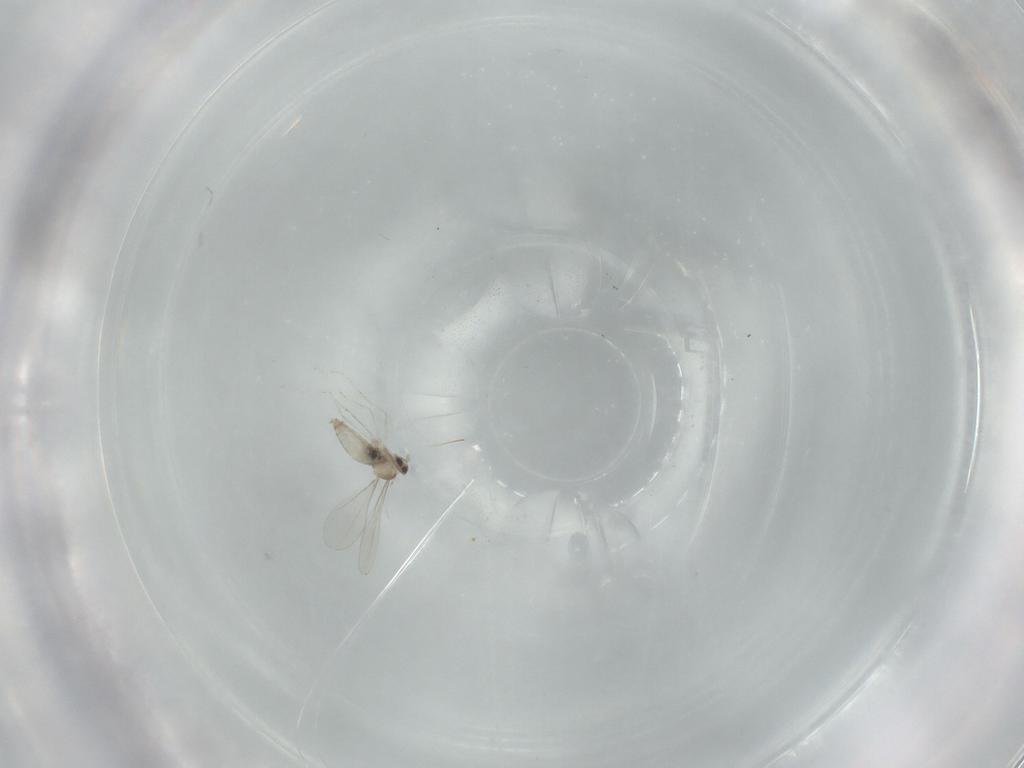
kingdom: Animalia
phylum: Arthropoda
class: Insecta
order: Diptera
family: Cecidomyiidae
